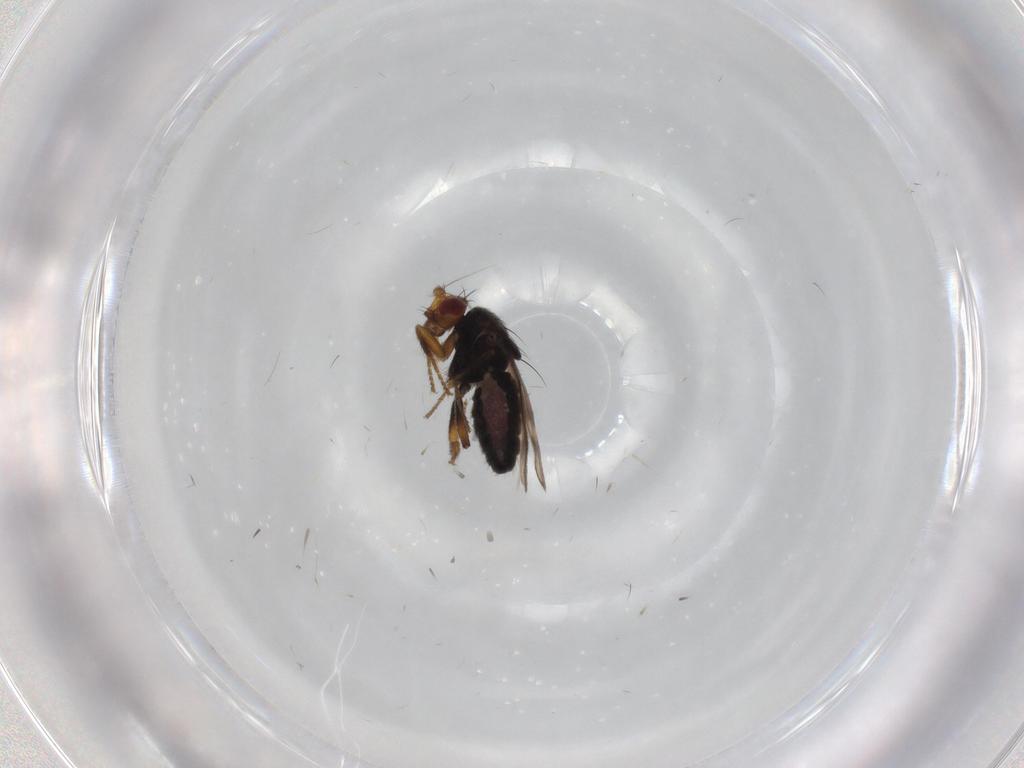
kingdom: Animalia
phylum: Arthropoda
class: Insecta
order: Diptera
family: Sphaeroceridae
